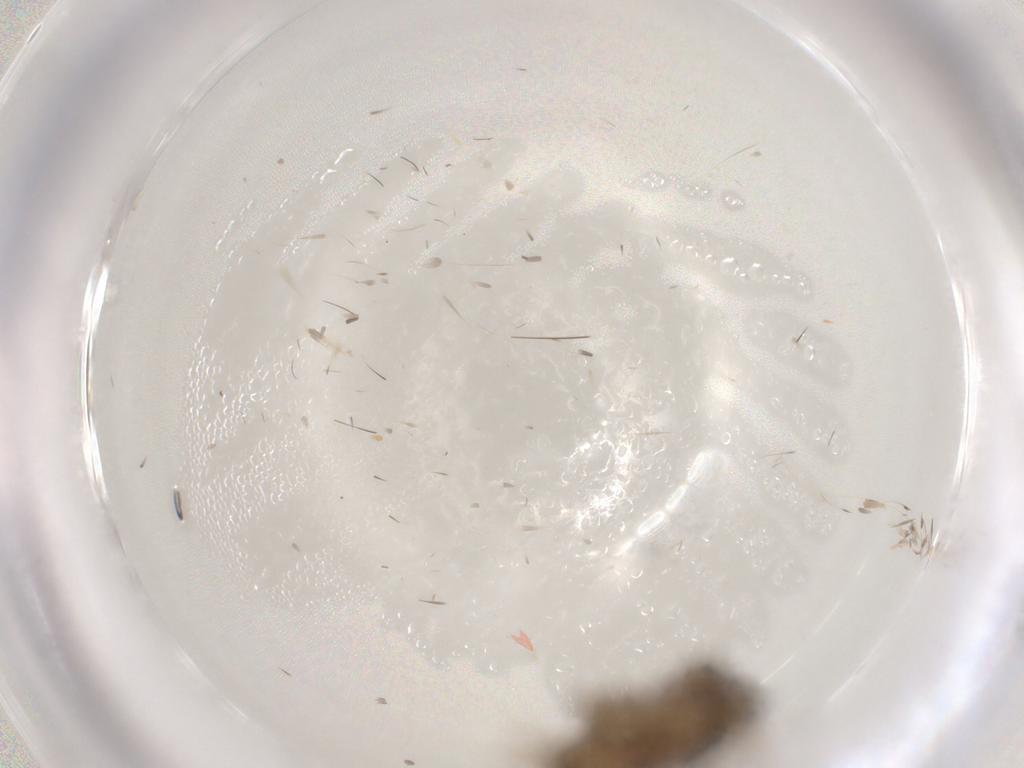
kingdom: Animalia
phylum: Arthropoda
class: Insecta
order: Hemiptera
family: Delphacidae
